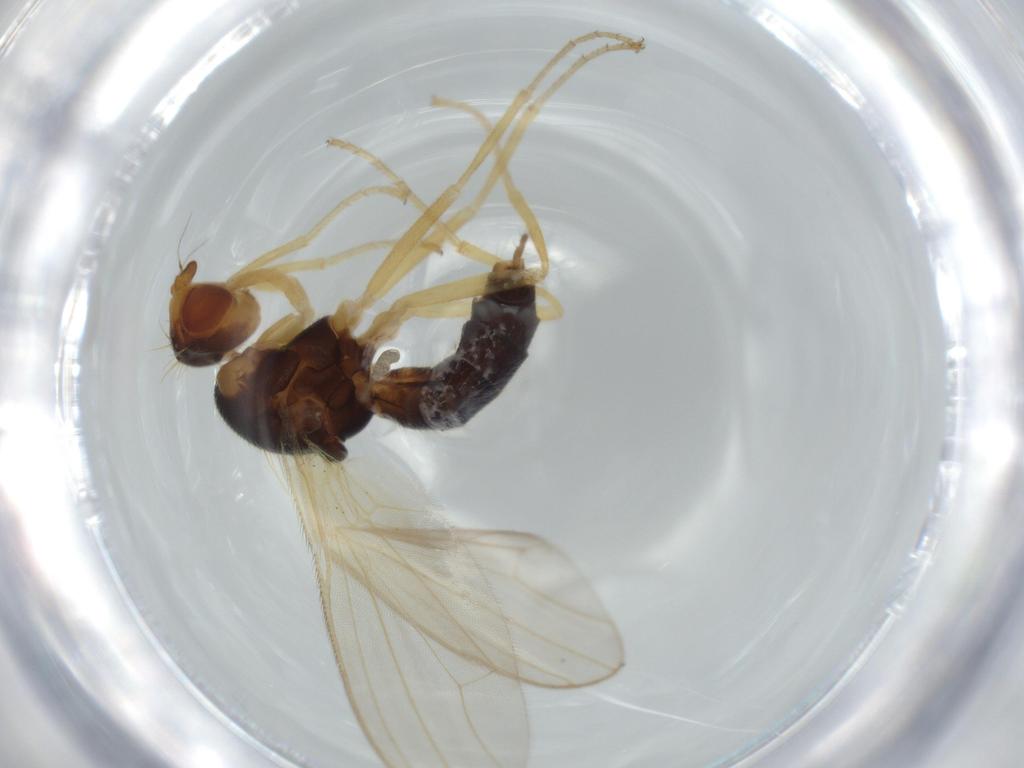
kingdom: Animalia
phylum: Arthropoda
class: Insecta
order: Diptera
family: Psilidae
